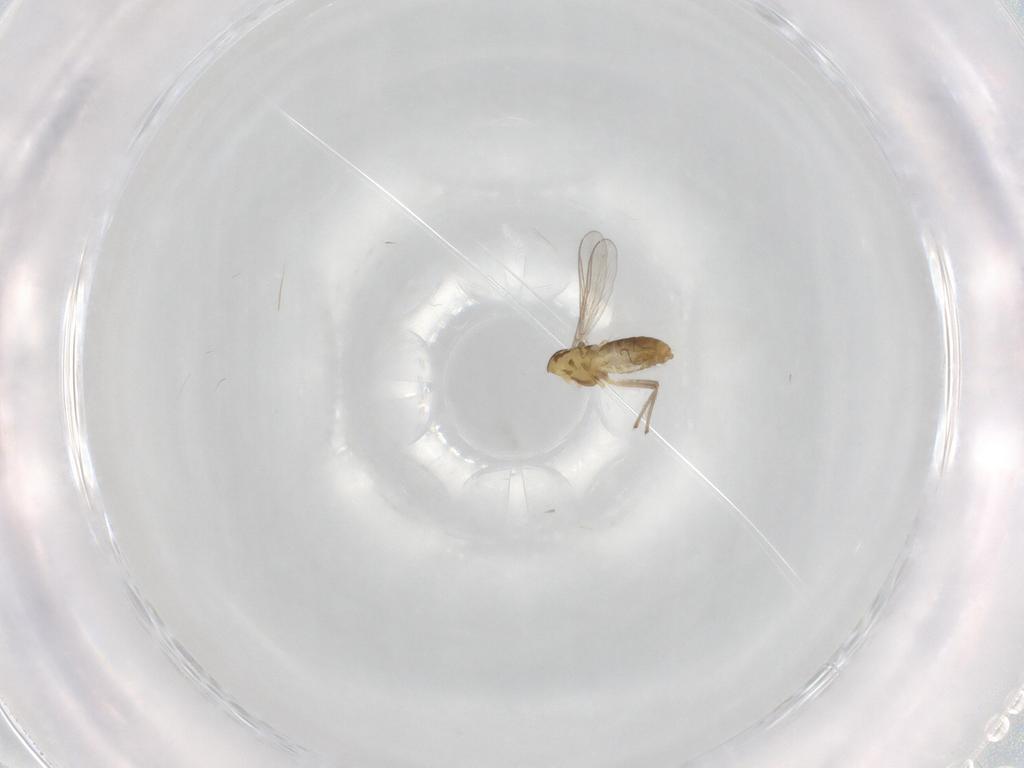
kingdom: Animalia
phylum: Arthropoda
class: Insecta
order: Diptera
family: Chironomidae
